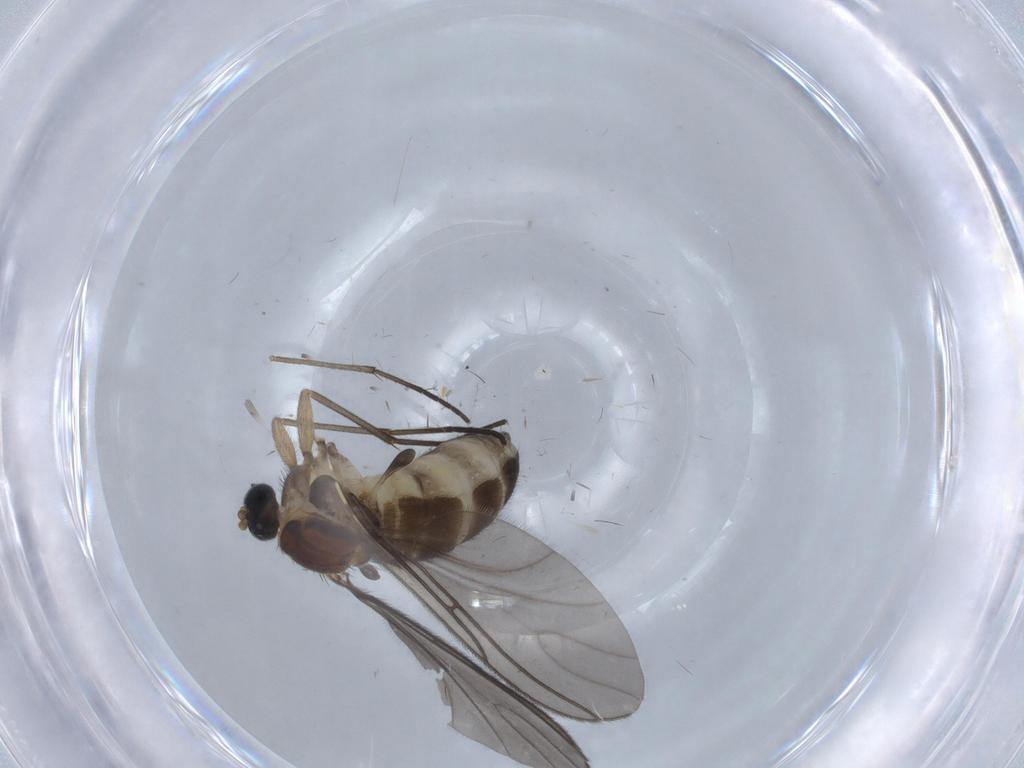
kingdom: Animalia
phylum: Arthropoda
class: Insecta
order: Diptera
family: Sciaridae
